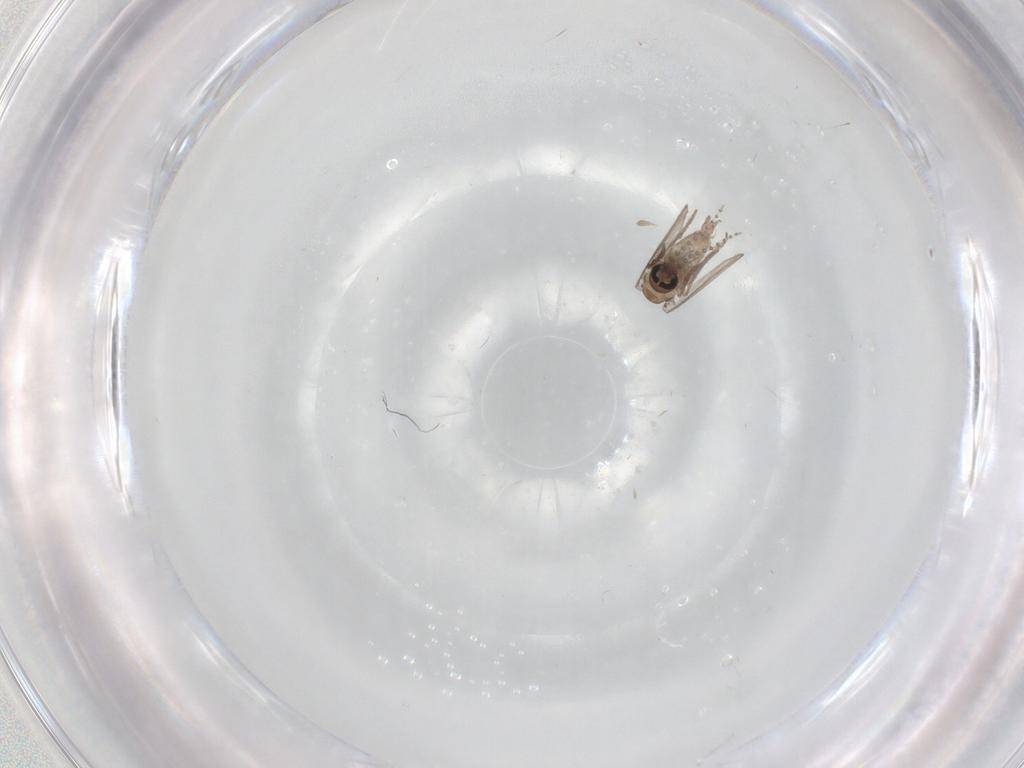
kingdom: Animalia
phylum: Arthropoda
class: Insecta
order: Diptera
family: Psychodidae
